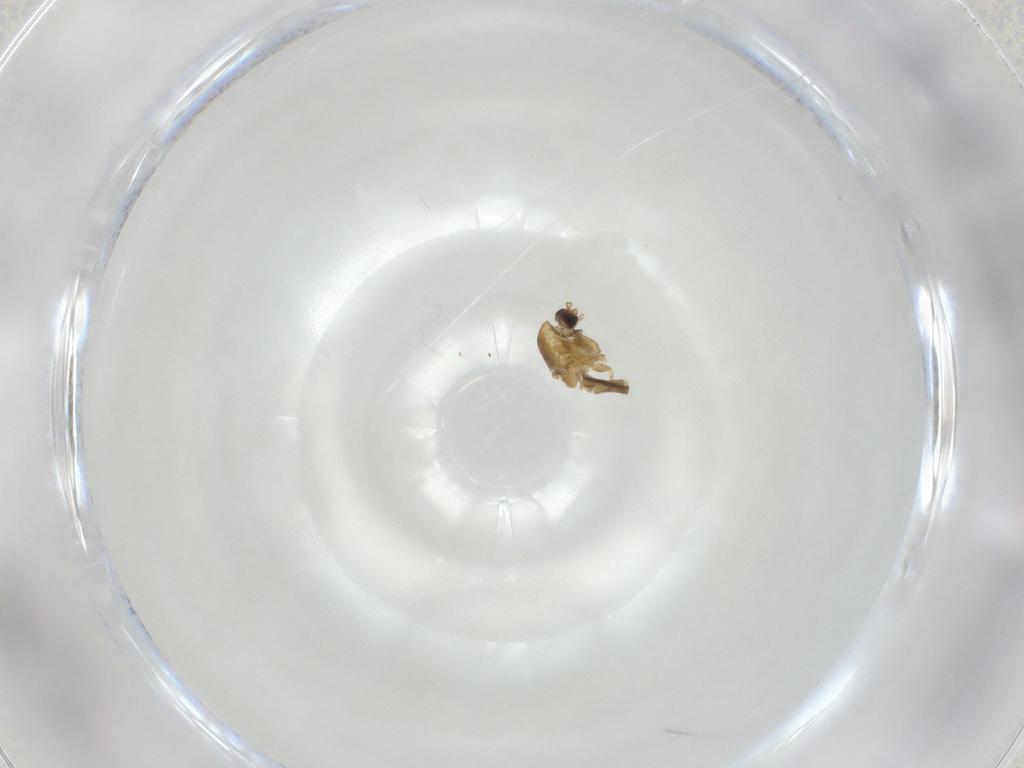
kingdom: Animalia
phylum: Arthropoda
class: Insecta
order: Diptera
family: Chironomidae
